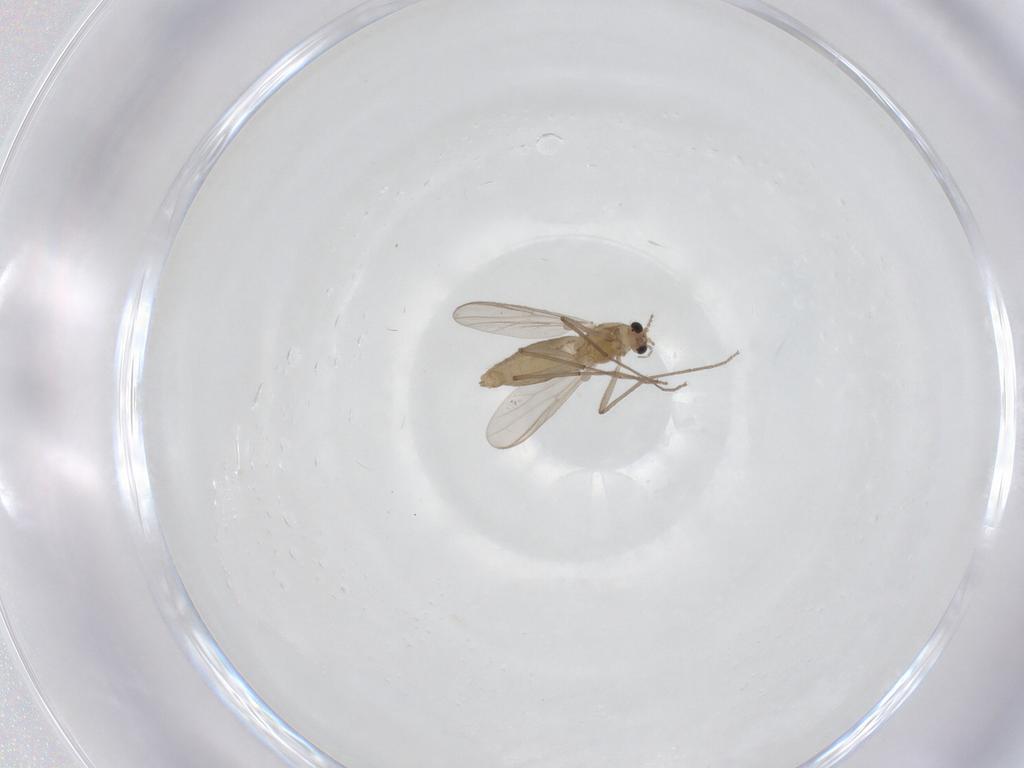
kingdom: Animalia
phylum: Arthropoda
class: Insecta
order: Diptera
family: Chironomidae
